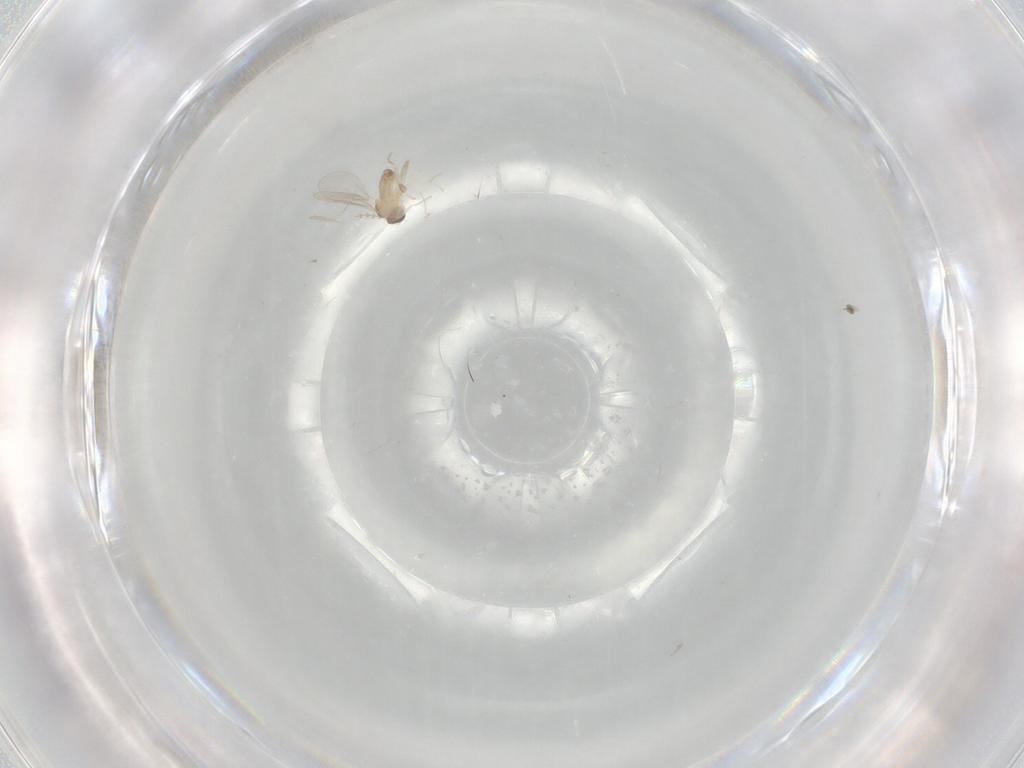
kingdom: Animalia
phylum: Arthropoda
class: Insecta
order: Diptera
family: Cecidomyiidae
